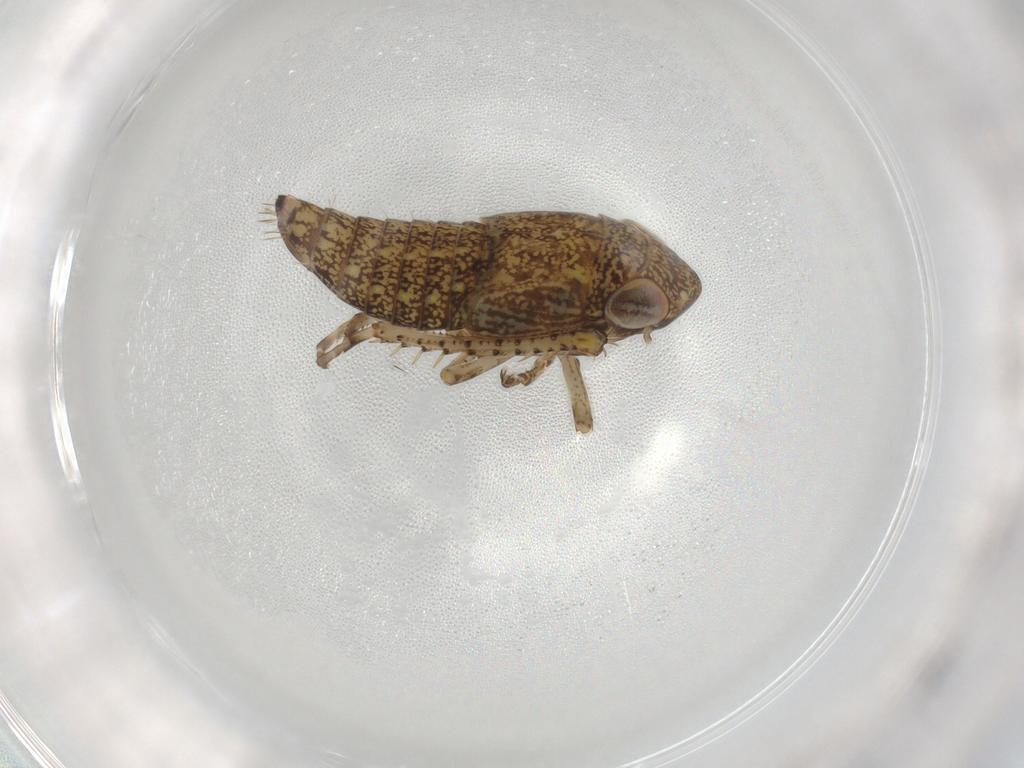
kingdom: Animalia
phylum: Arthropoda
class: Insecta
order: Hemiptera
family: Cicadellidae
